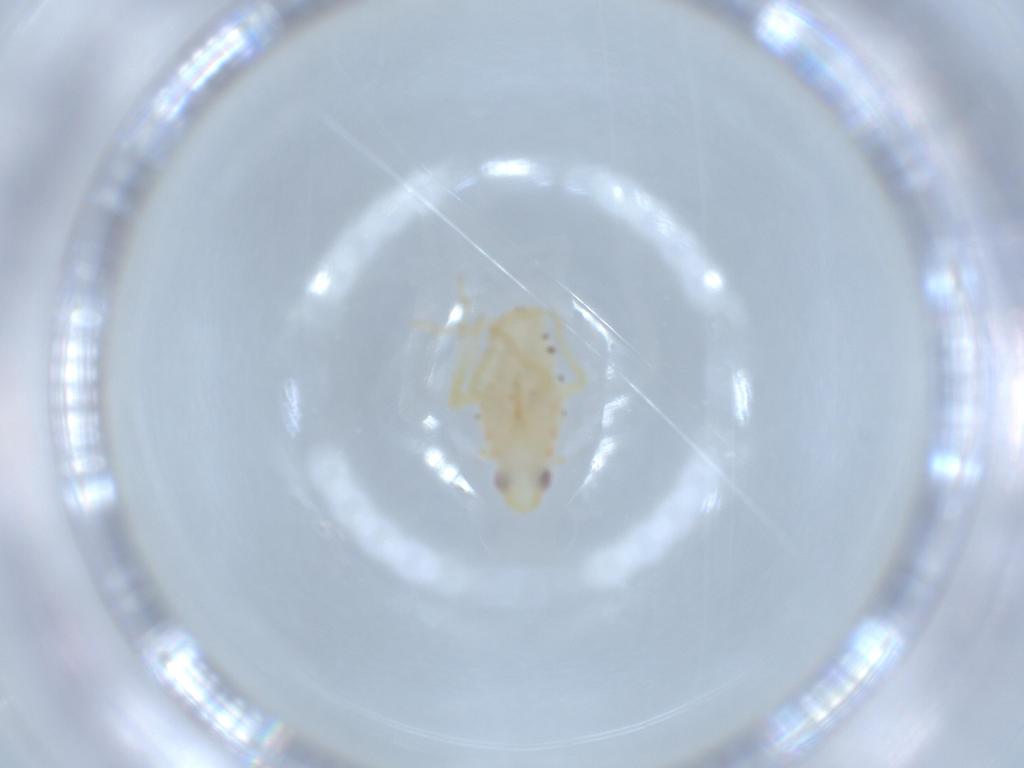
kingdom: Animalia
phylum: Arthropoda
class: Insecta
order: Hemiptera
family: Tropiduchidae
